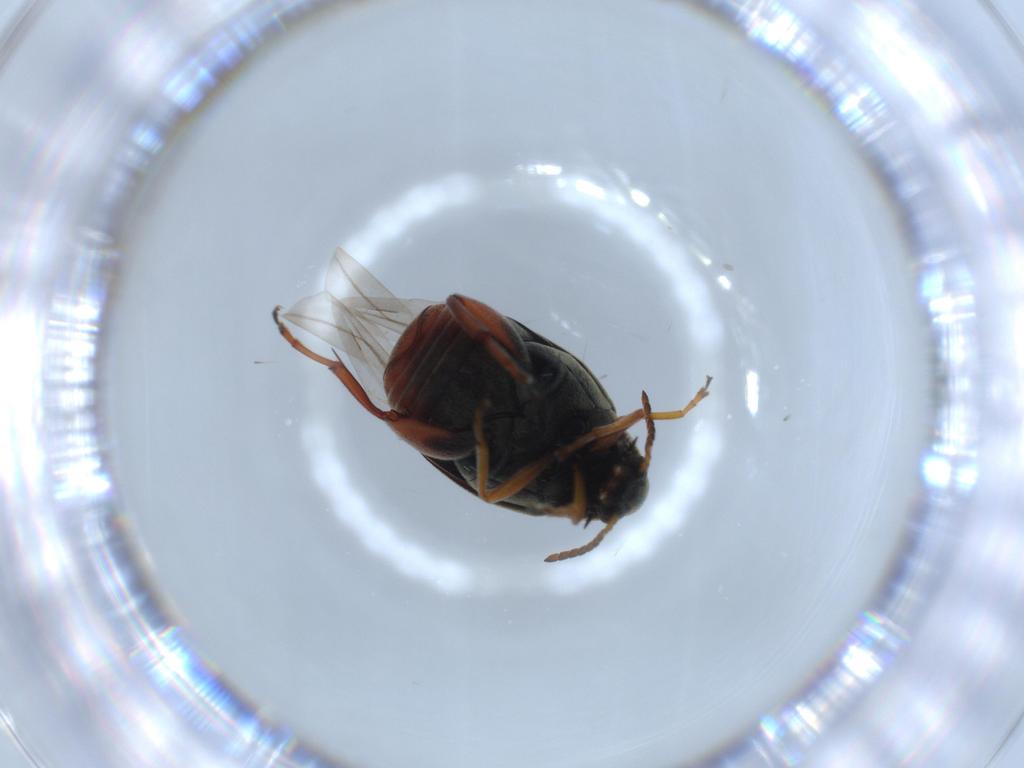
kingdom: Animalia
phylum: Arthropoda
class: Insecta
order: Coleoptera
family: Chrysomelidae
